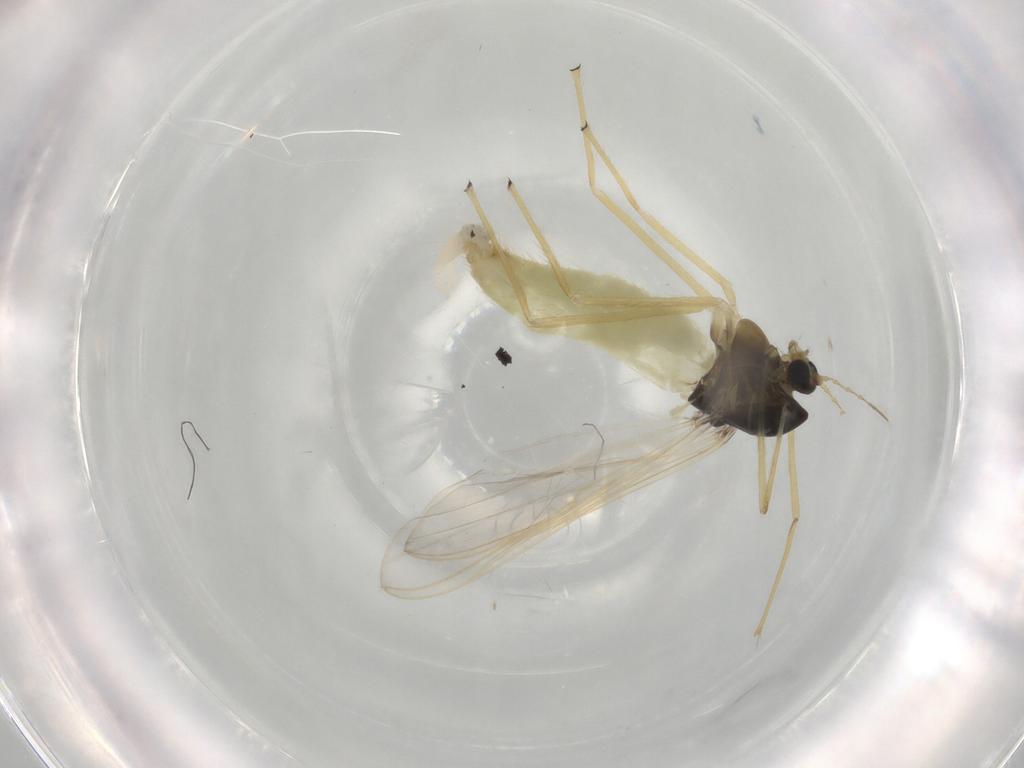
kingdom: Animalia
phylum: Arthropoda
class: Insecta
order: Diptera
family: Chironomidae
